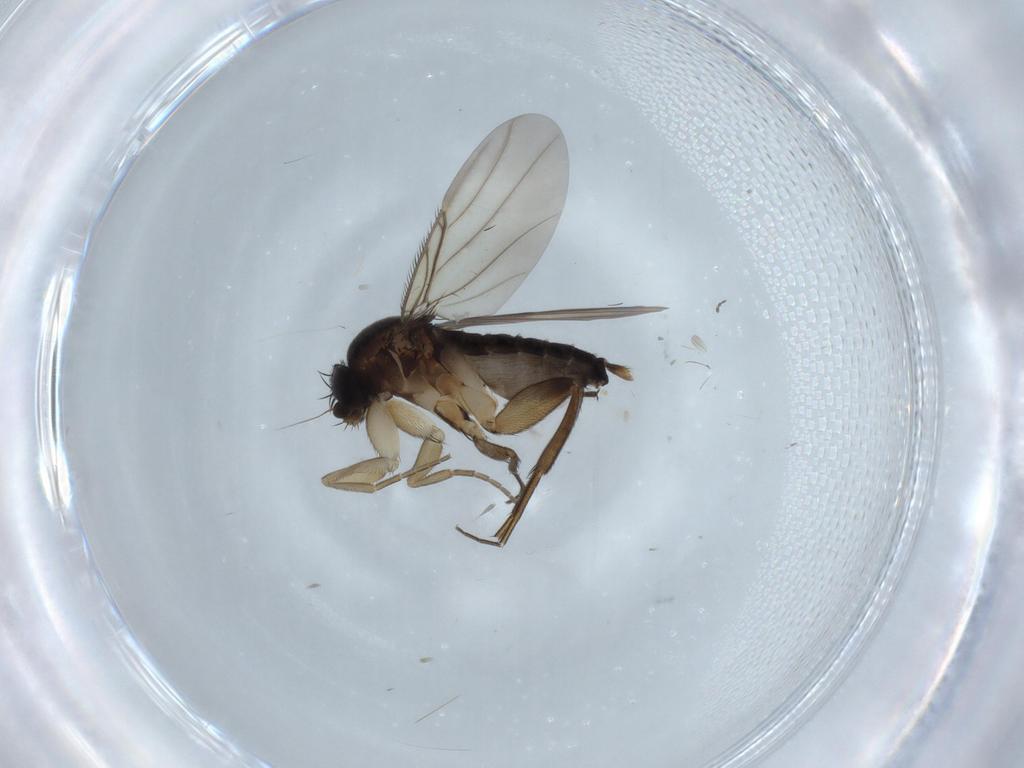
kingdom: Animalia
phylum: Arthropoda
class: Insecta
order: Diptera
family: Phoridae
